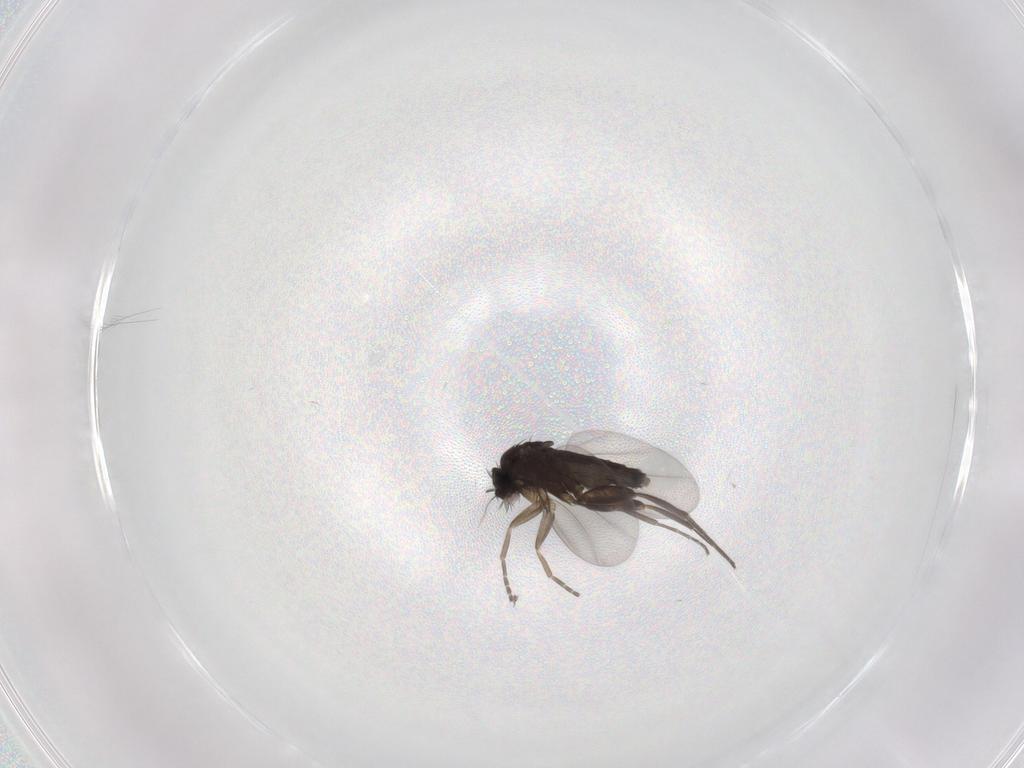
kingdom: Animalia
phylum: Arthropoda
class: Insecta
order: Diptera
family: Phoridae
